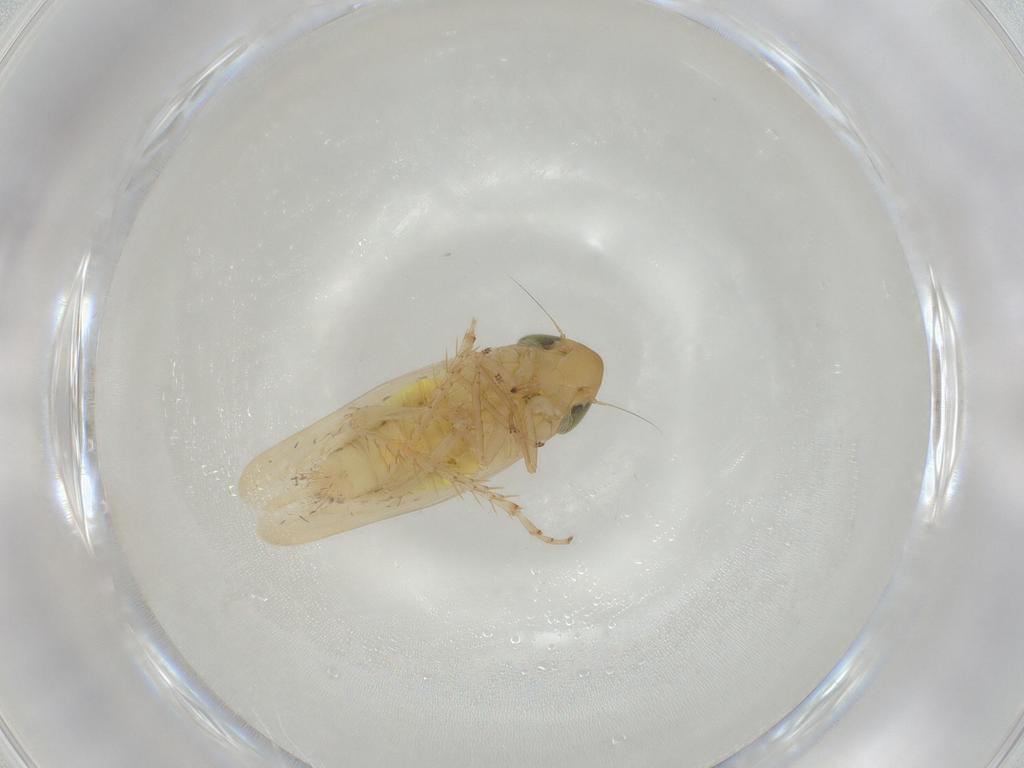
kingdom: Animalia
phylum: Arthropoda
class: Insecta
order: Hemiptera
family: Cicadellidae
